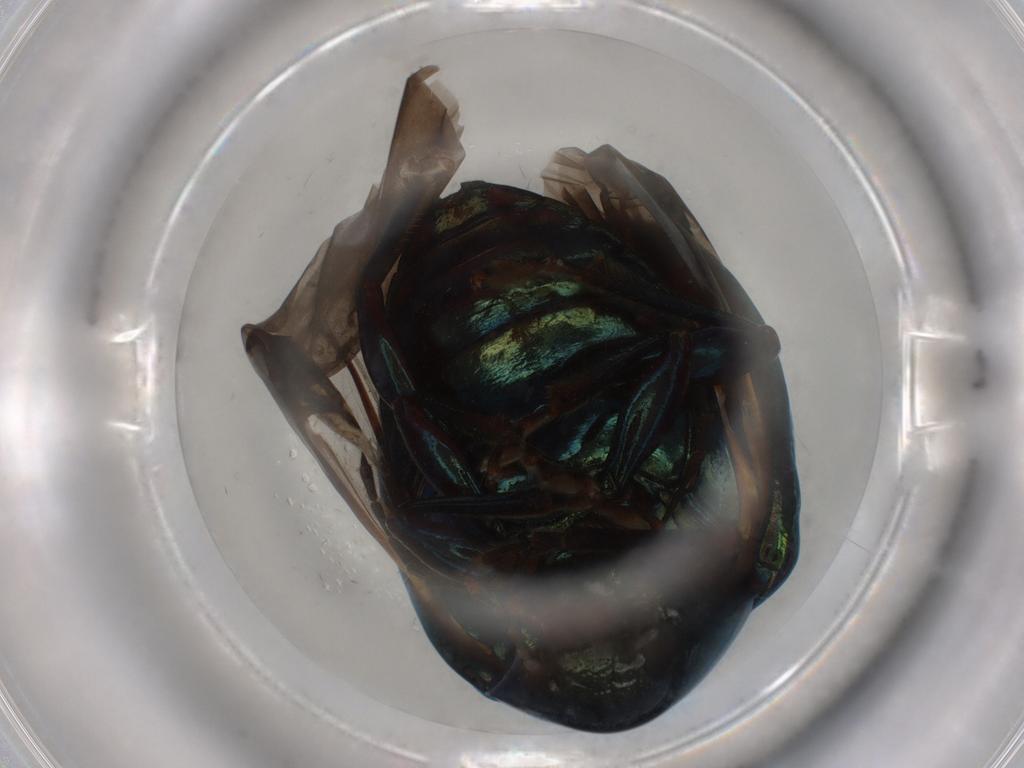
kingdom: Animalia
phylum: Arthropoda
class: Insecta
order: Coleoptera
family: Chrysomelidae
